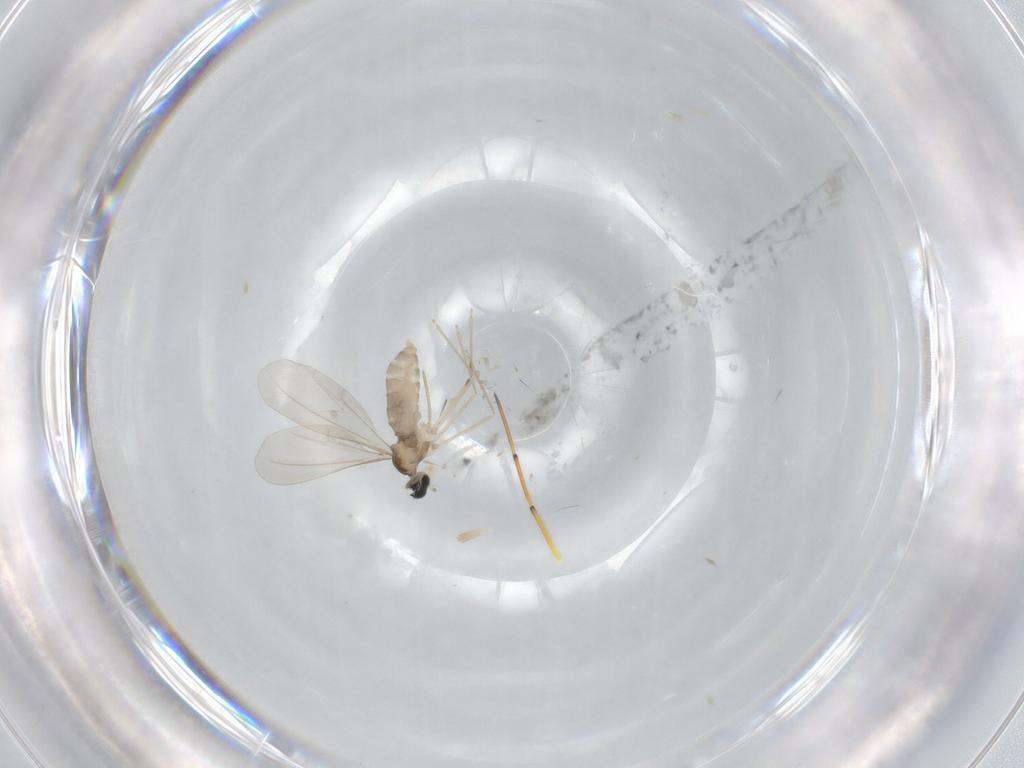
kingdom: Animalia
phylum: Arthropoda
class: Insecta
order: Diptera
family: Cecidomyiidae
